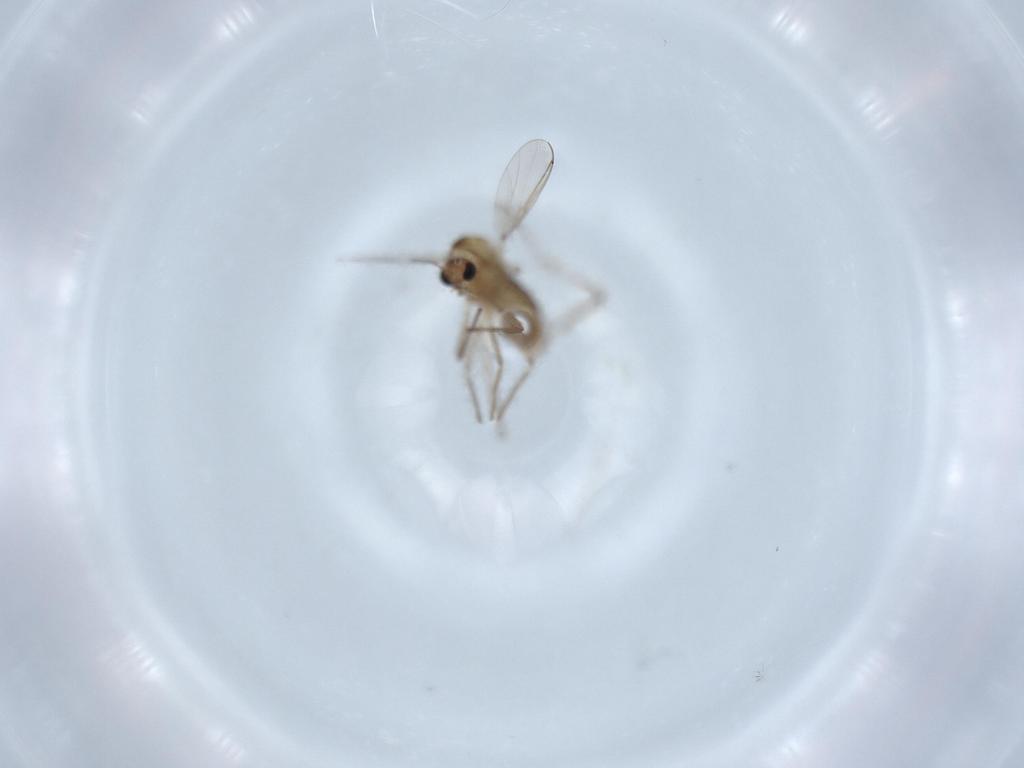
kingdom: Animalia
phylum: Arthropoda
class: Insecta
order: Diptera
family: Chironomidae
